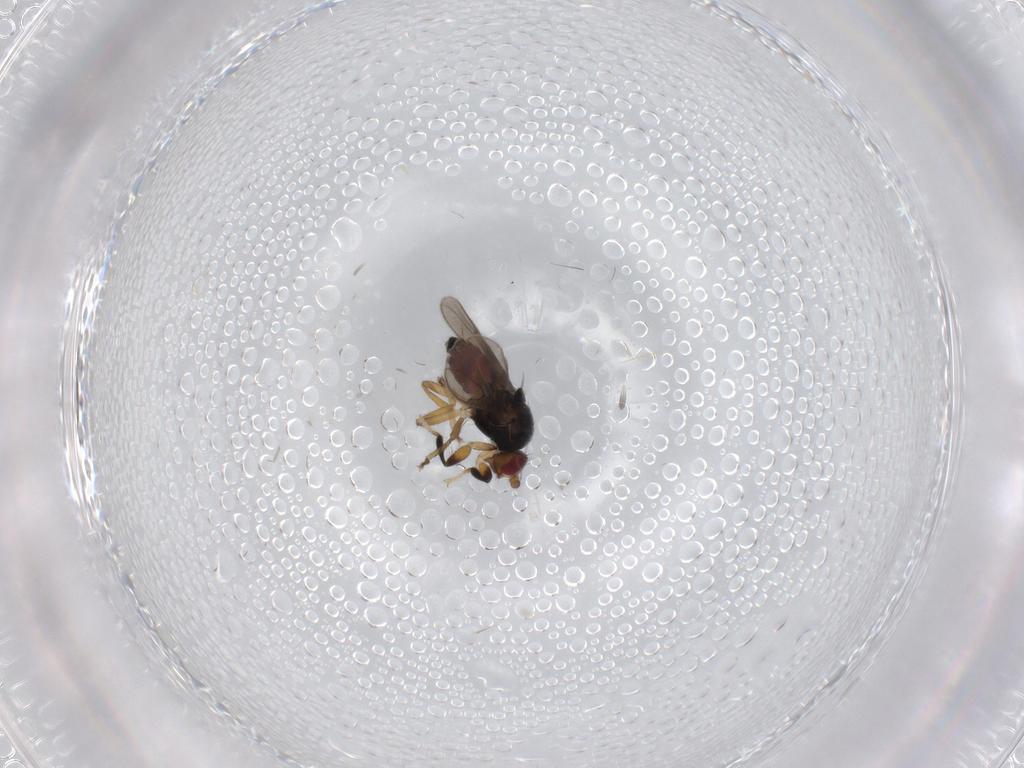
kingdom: Animalia
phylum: Arthropoda
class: Insecta
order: Diptera
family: Sphaeroceridae
